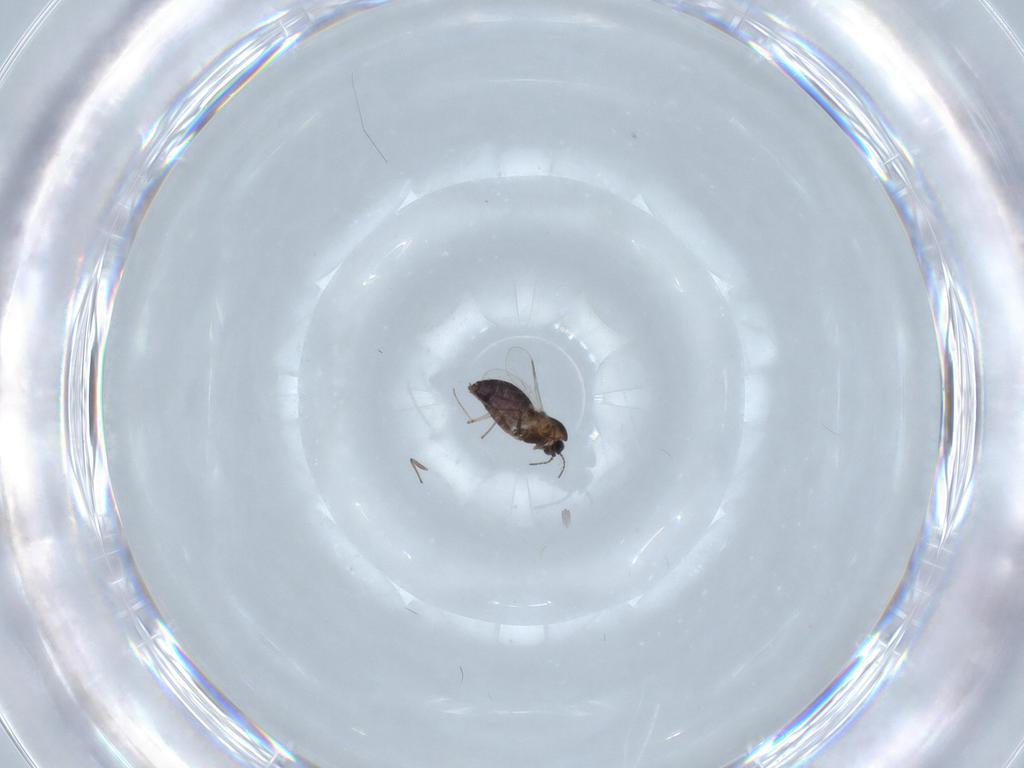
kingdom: Animalia
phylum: Arthropoda
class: Insecta
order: Diptera
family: Chironomidae
